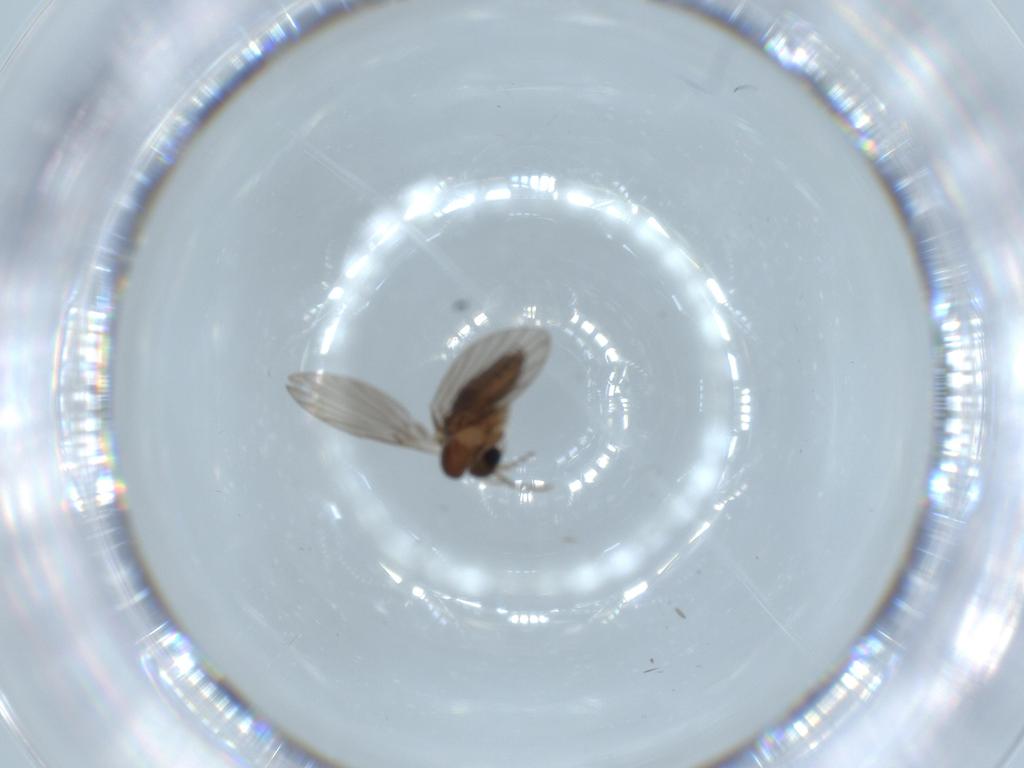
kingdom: Animalia
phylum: Arthropoda
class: Insecta
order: Diptera
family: Psychodidae
